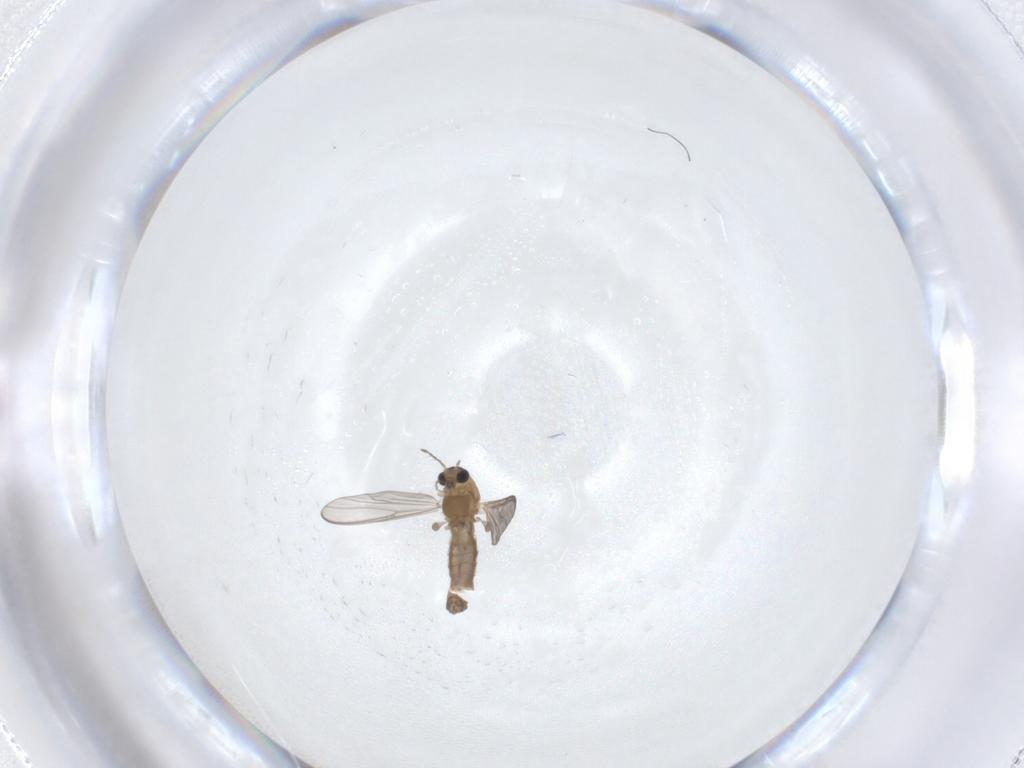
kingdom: Animalia
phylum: Arthropoda
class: Insecta
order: Diptera
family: Chironomidae
